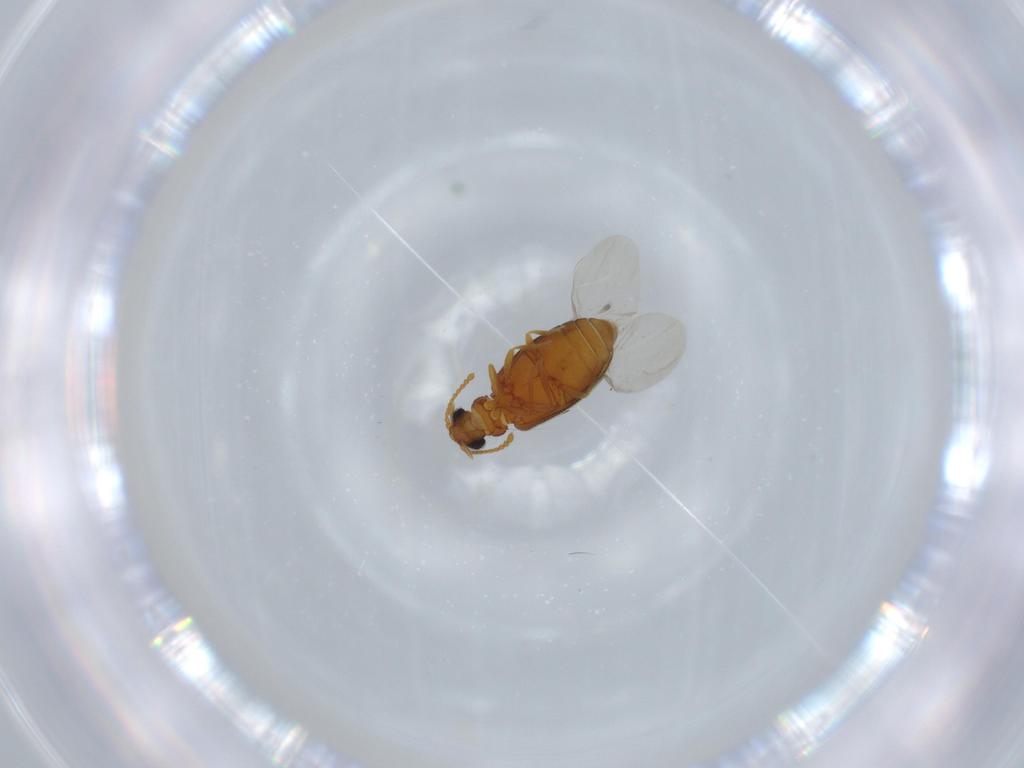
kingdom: Animalia
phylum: Arthropoda
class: Insecta
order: Coleoptera
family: Aderidae
